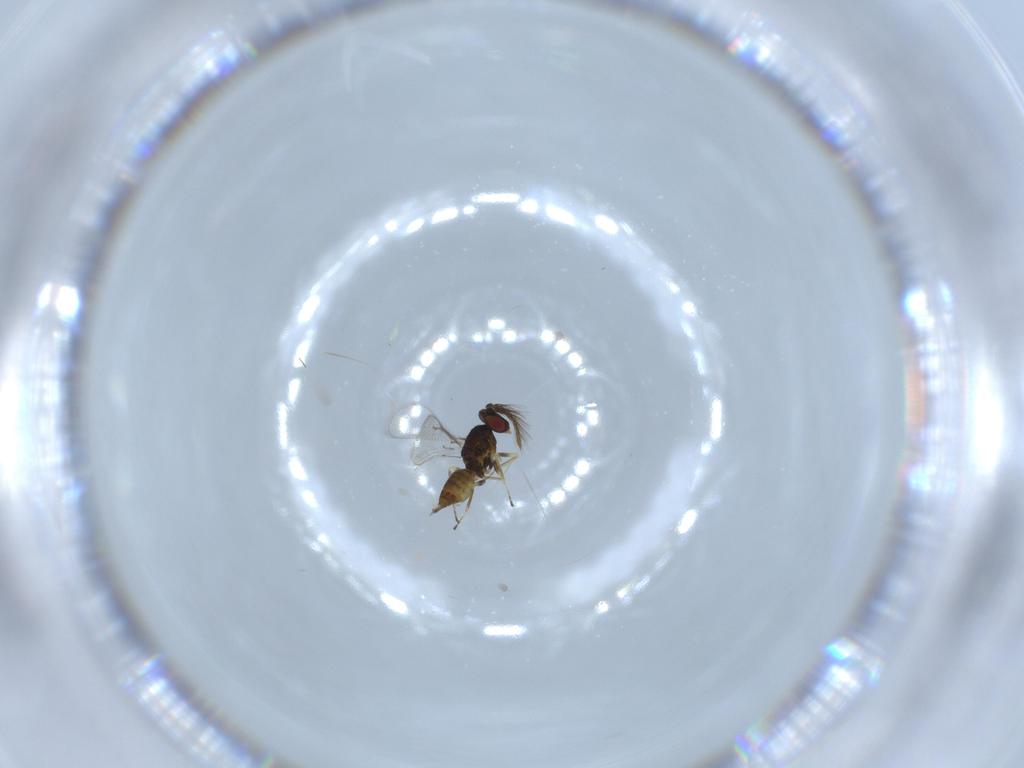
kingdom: Animalia
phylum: Arthropoda
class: Insecta
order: Hymenoptera
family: Eulophidae
